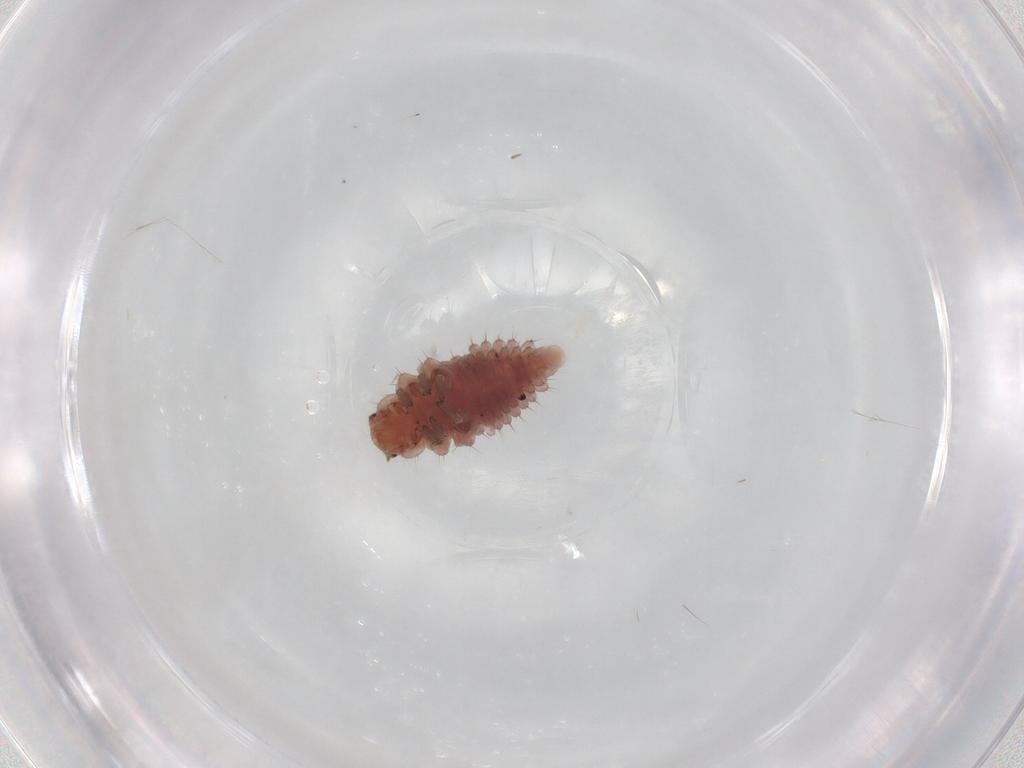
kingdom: Animalia
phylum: Arthropoda
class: Insecta
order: Coleoptera
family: Coccinellidae
